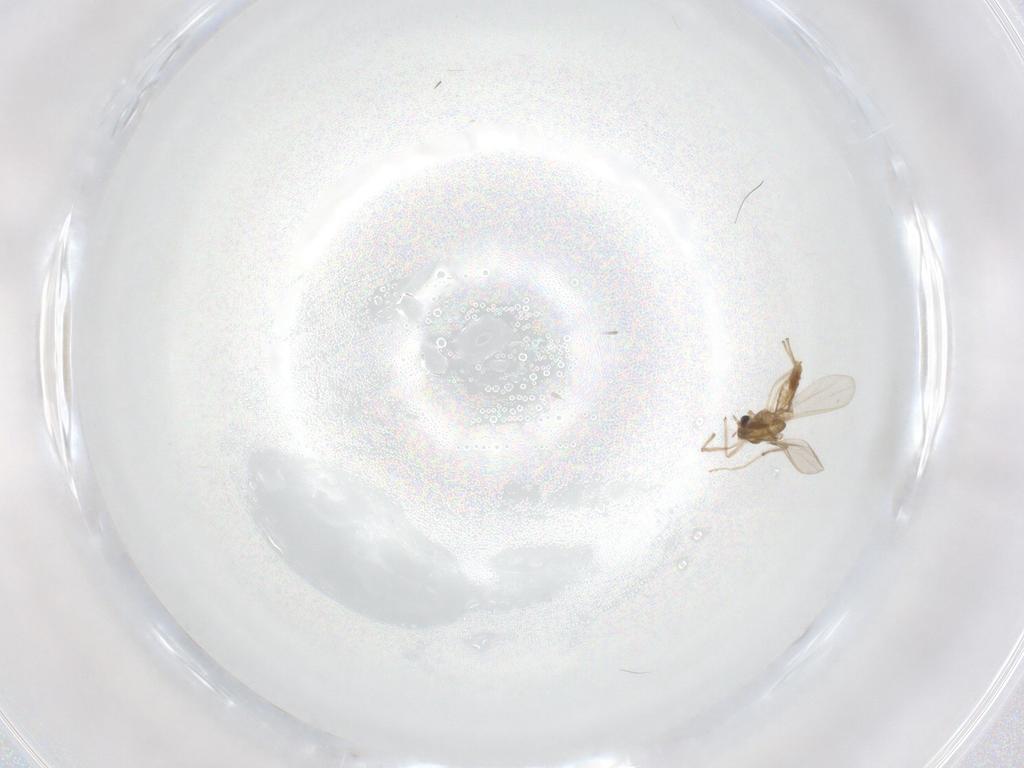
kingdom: Animalia
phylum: Arthropoda
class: Insecta
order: Diptera
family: Chironomidae
